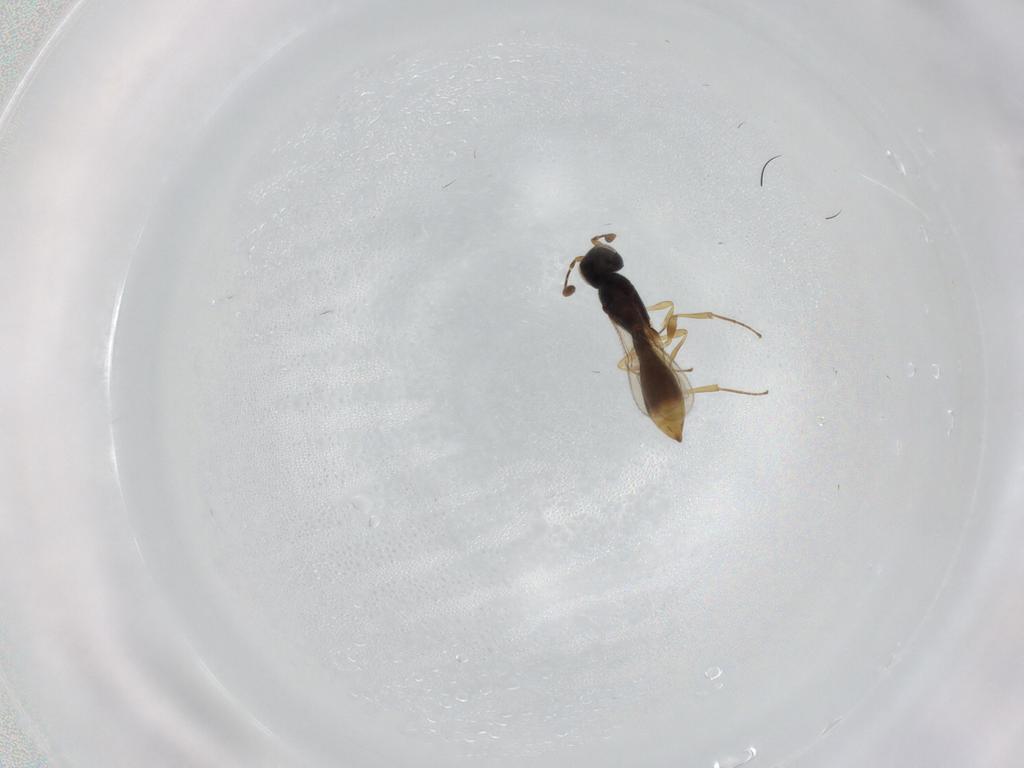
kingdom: Animalia
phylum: Arthropoda
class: Insecta
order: Hymenoptera
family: Scelionidae
